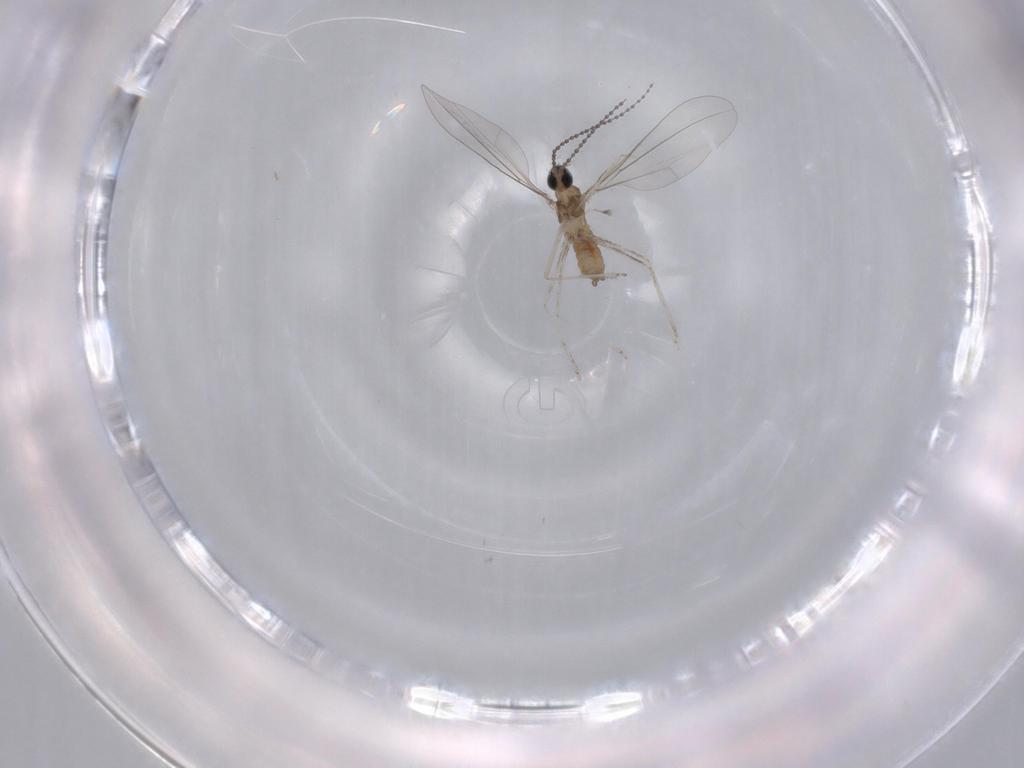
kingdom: Animalia
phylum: Arthropoda
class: Insecta
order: Diptera
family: Cecidomyiidae
